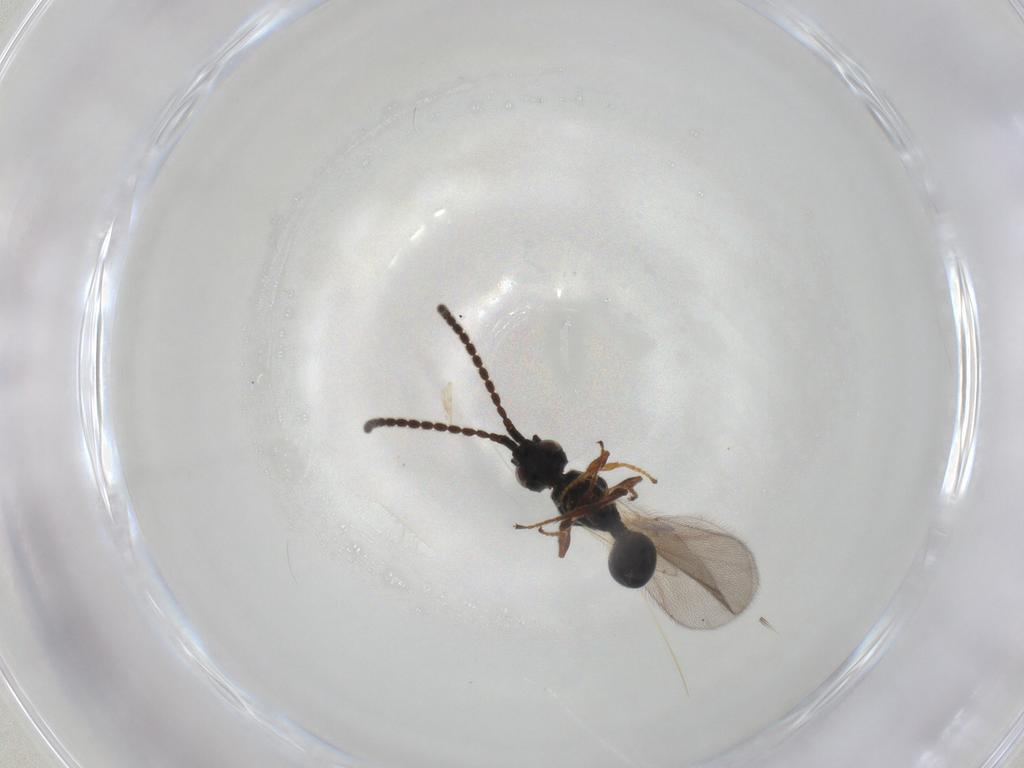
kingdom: Animalia
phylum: Arthropoda
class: Insecta
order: Hymenoptera
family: Diapriidae
